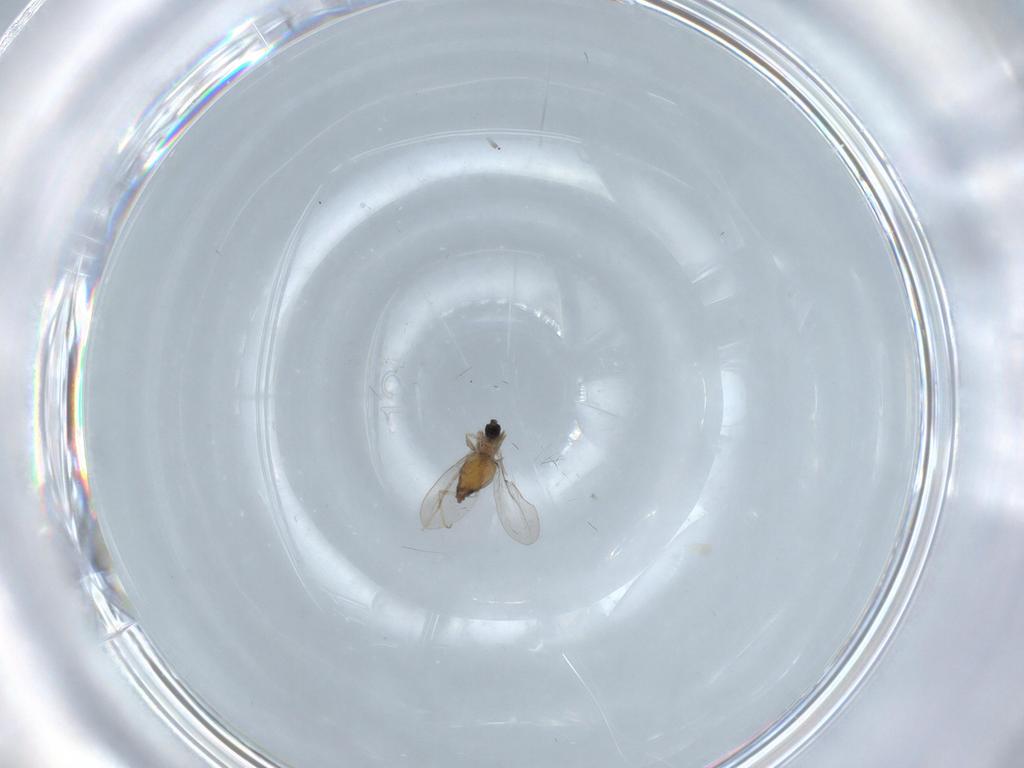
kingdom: Animalia
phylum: Arthropoda
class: Insecta
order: Diptera
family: Cecidomyiidae
